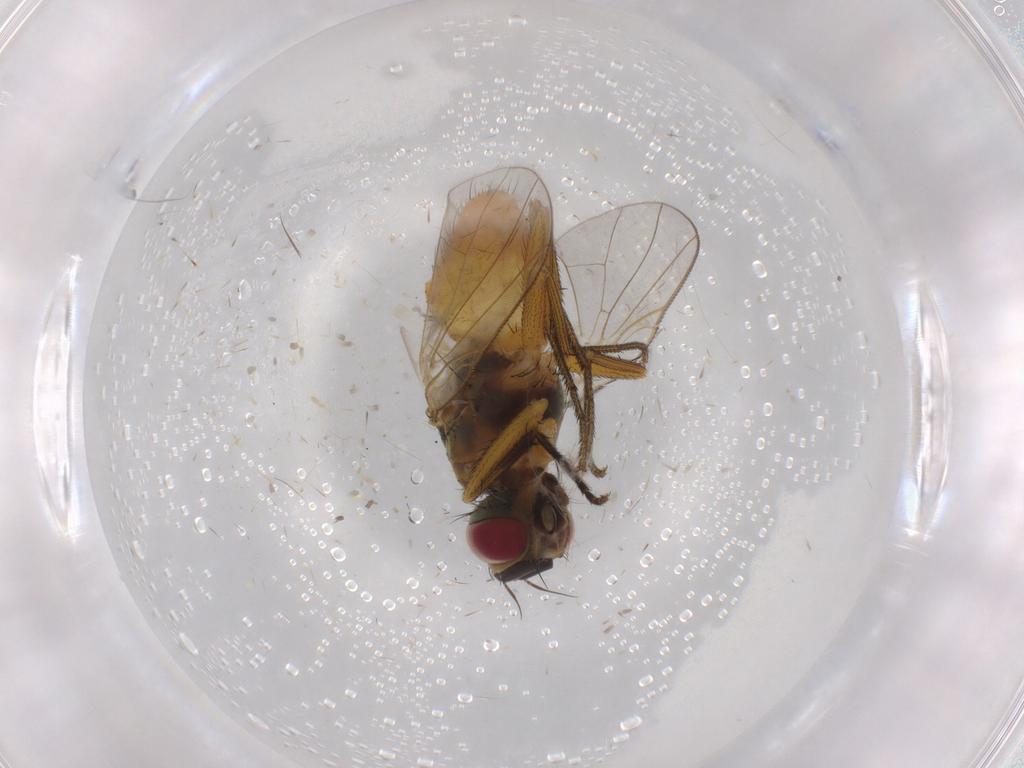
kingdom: Animalia
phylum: Arthropoda
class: Insecta
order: Diptera
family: Muscidae
